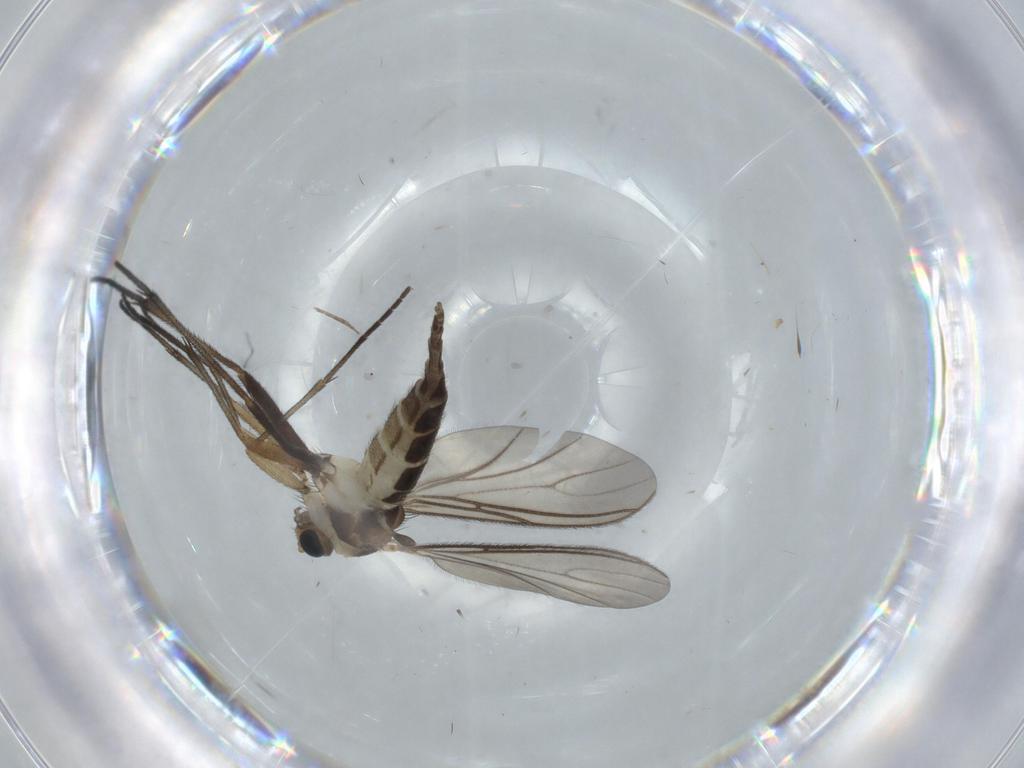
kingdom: Animalia
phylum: Arthropoda
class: Insecta
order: Diptera
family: Sciaridae
